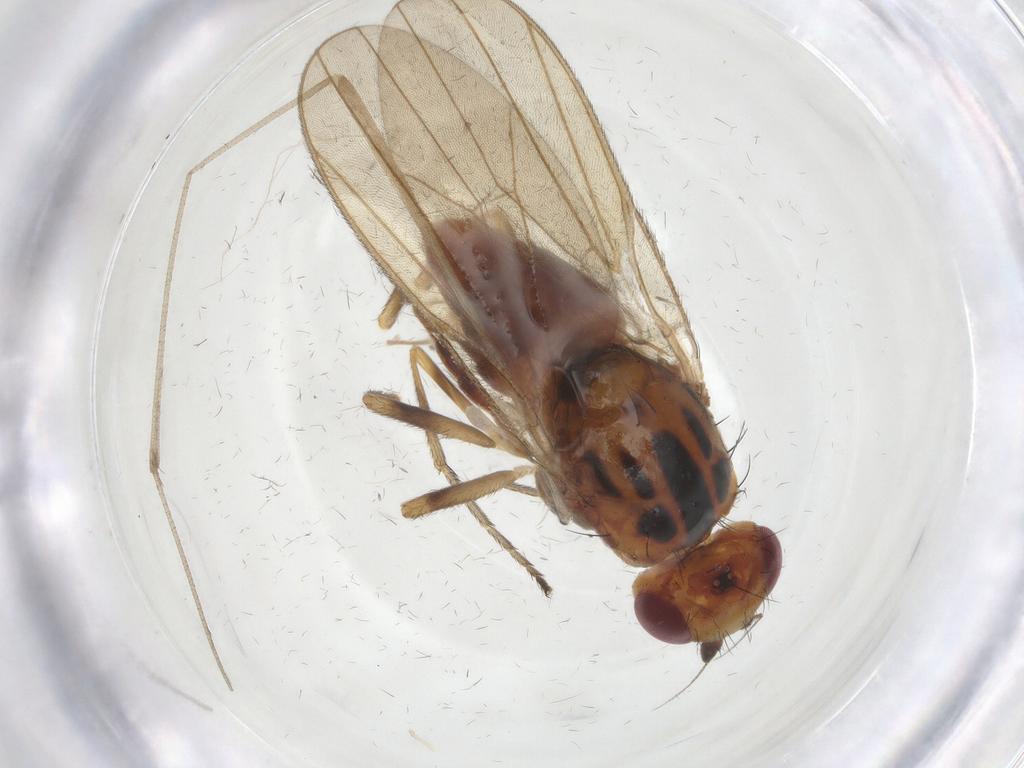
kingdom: Animalia
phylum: Arthropoda
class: Insecta
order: Diptera
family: Chloropidae
